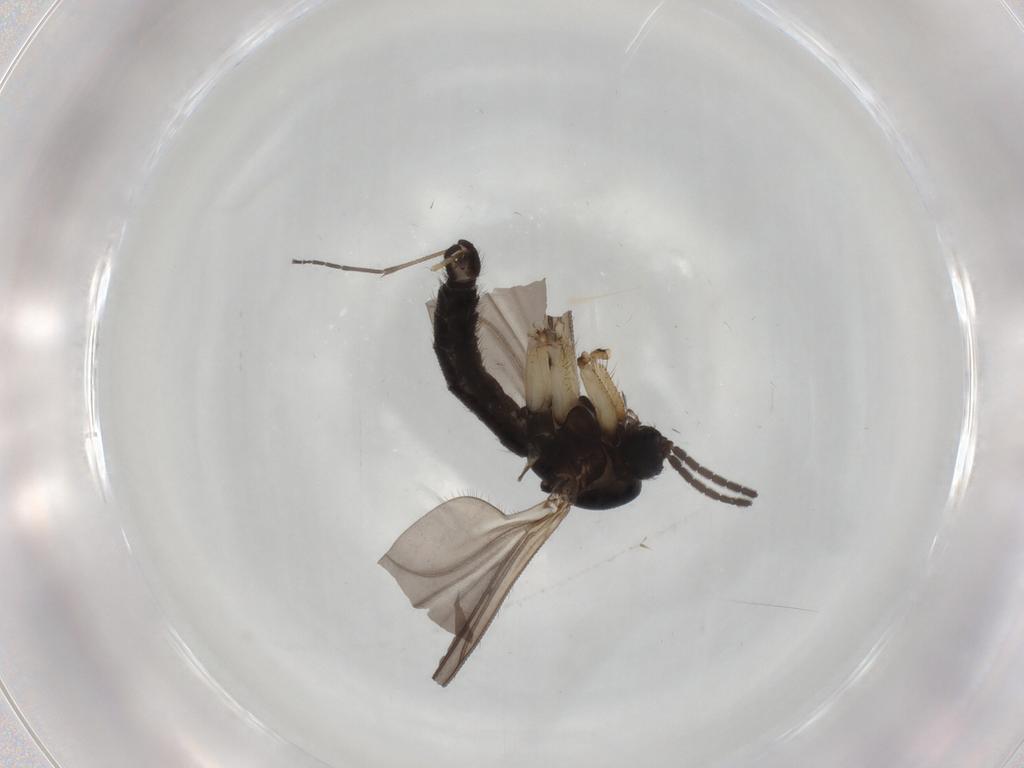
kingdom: Animalia
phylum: Arthropoda
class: Insecta
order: Diptera
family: Sciaridae
